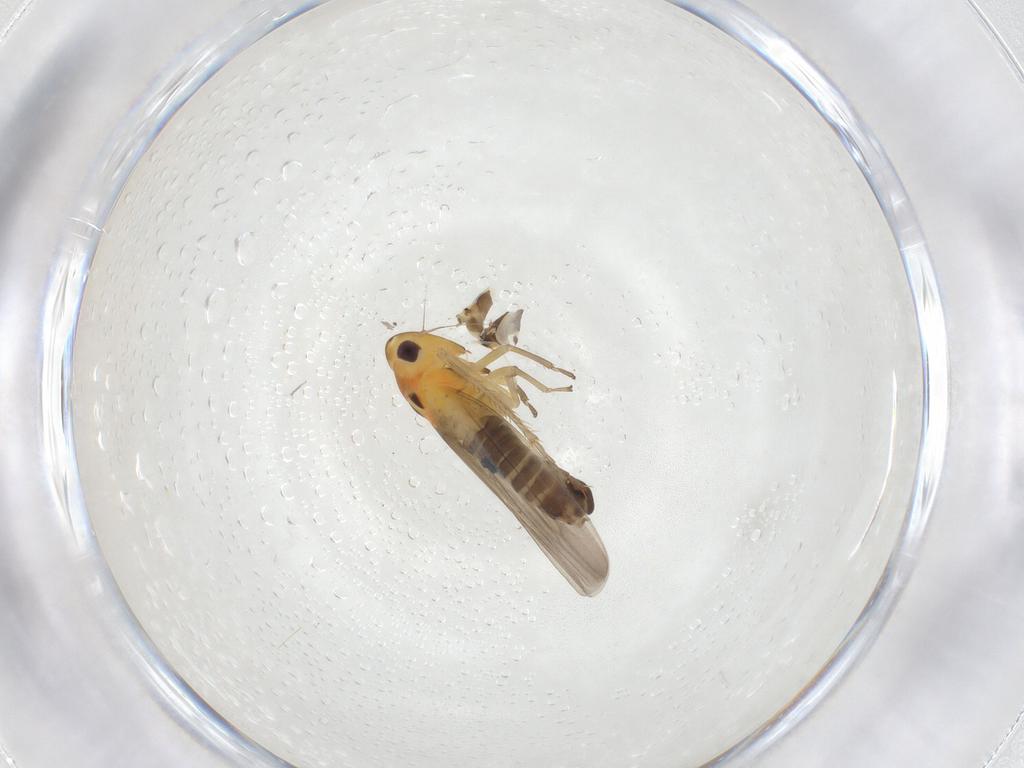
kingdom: Animalia
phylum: Arthropoda
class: Insecta
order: Hemiptera
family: Cicadellidae
